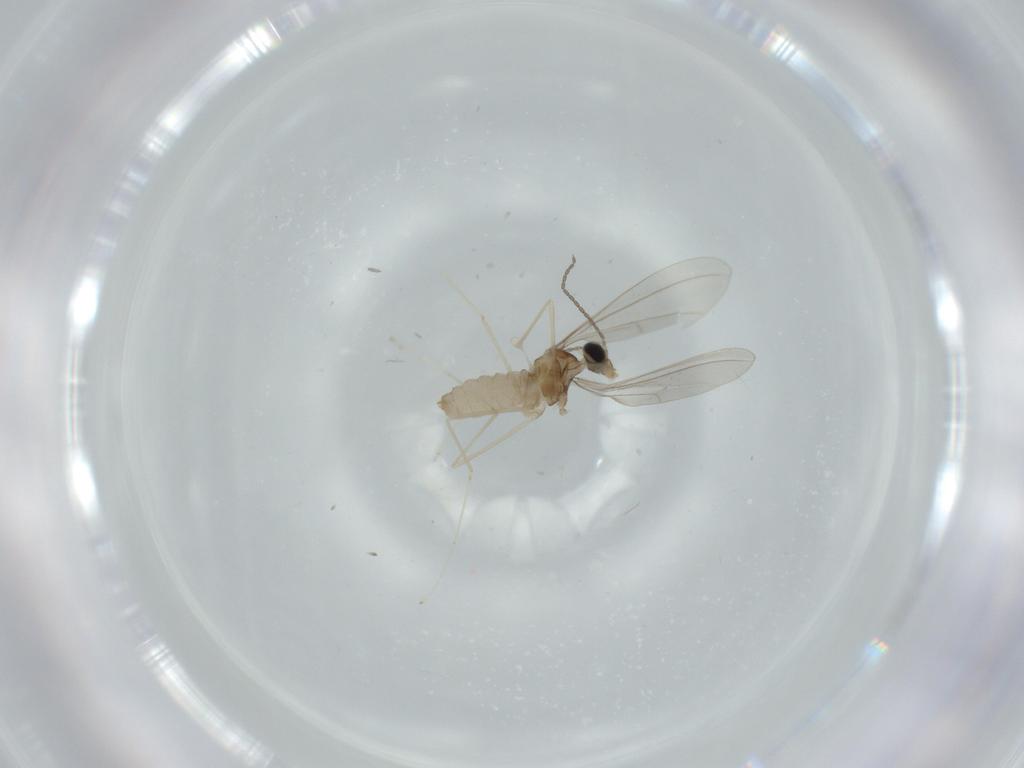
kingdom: Animalia
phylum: Arthropoda
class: Insecta
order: Diptera
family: Cecidomyiidae
